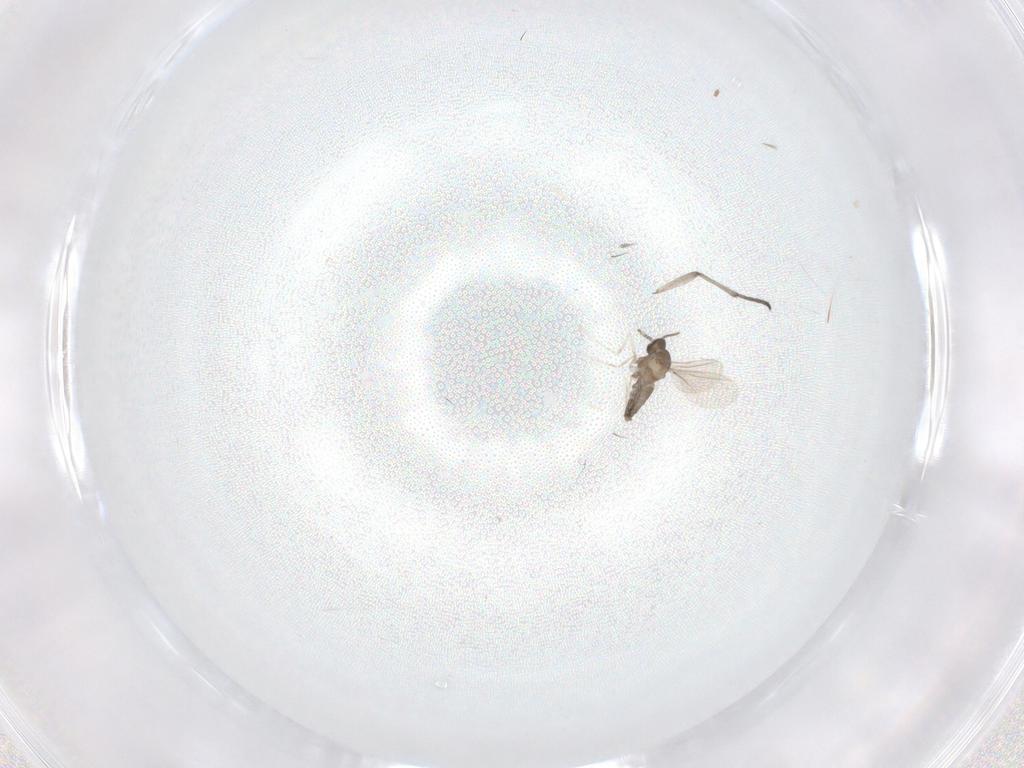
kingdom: Animalia
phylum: Arthropoda
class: Insecta
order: Diptera
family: Cecidomyiidae
